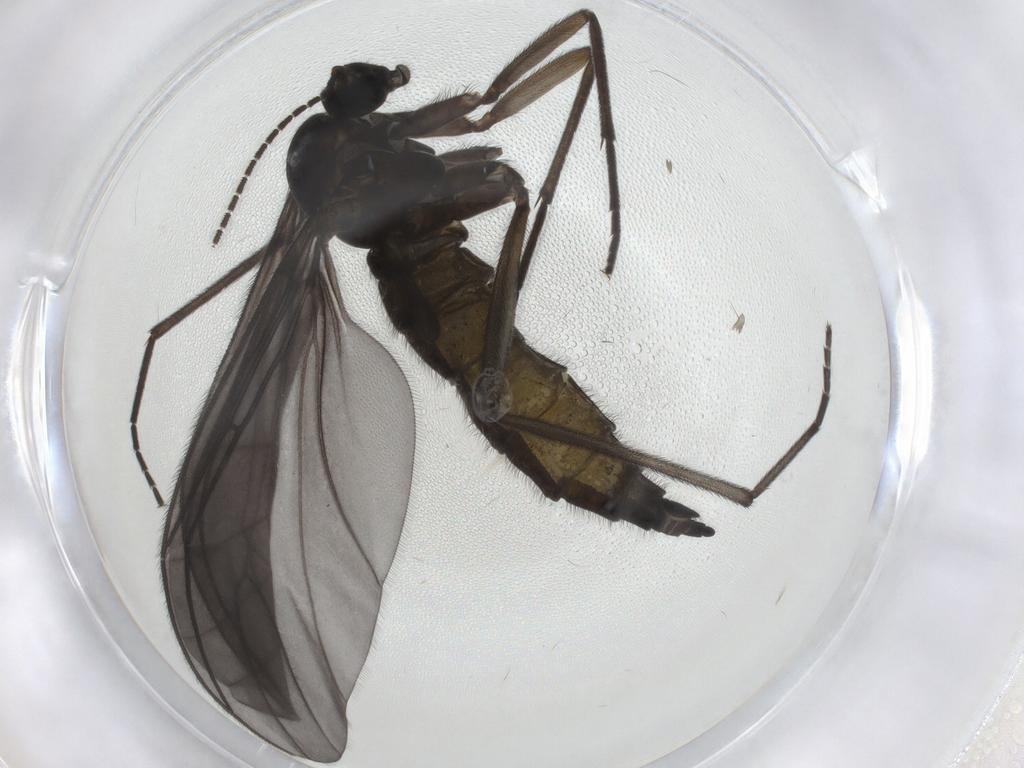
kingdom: Animalia
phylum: Arthropoda
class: Insecta
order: Diptera
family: Sciaridae
